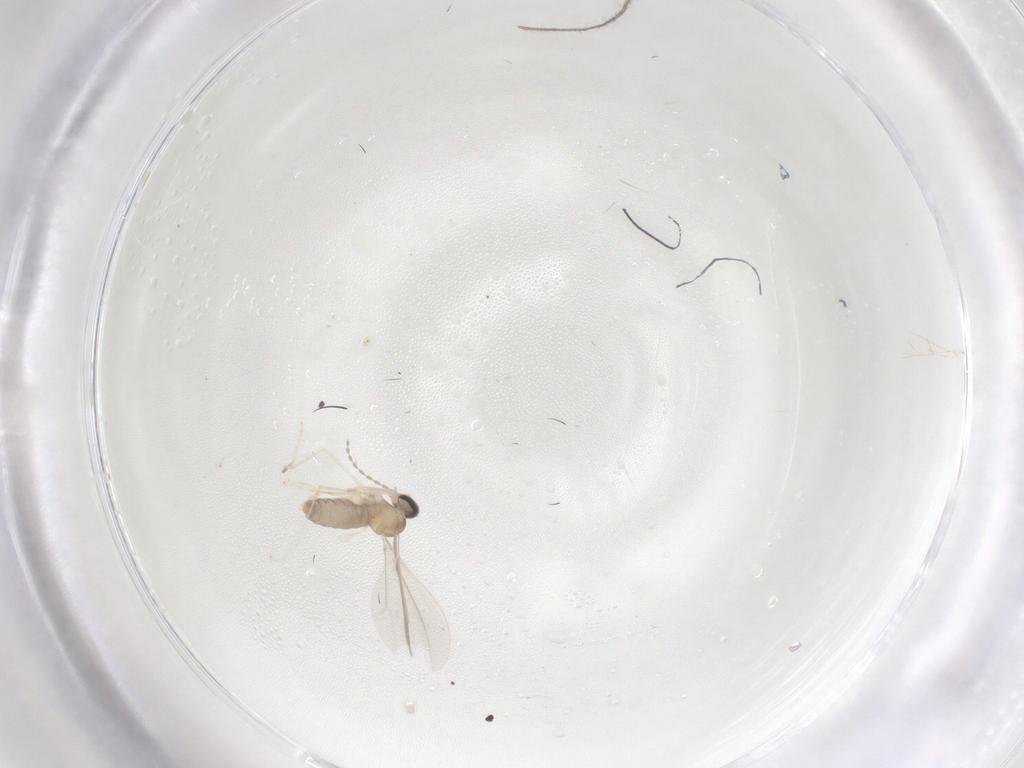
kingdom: Animalia
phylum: Arthropoda
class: Insecta
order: Diptera
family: Cecidomyiidae
